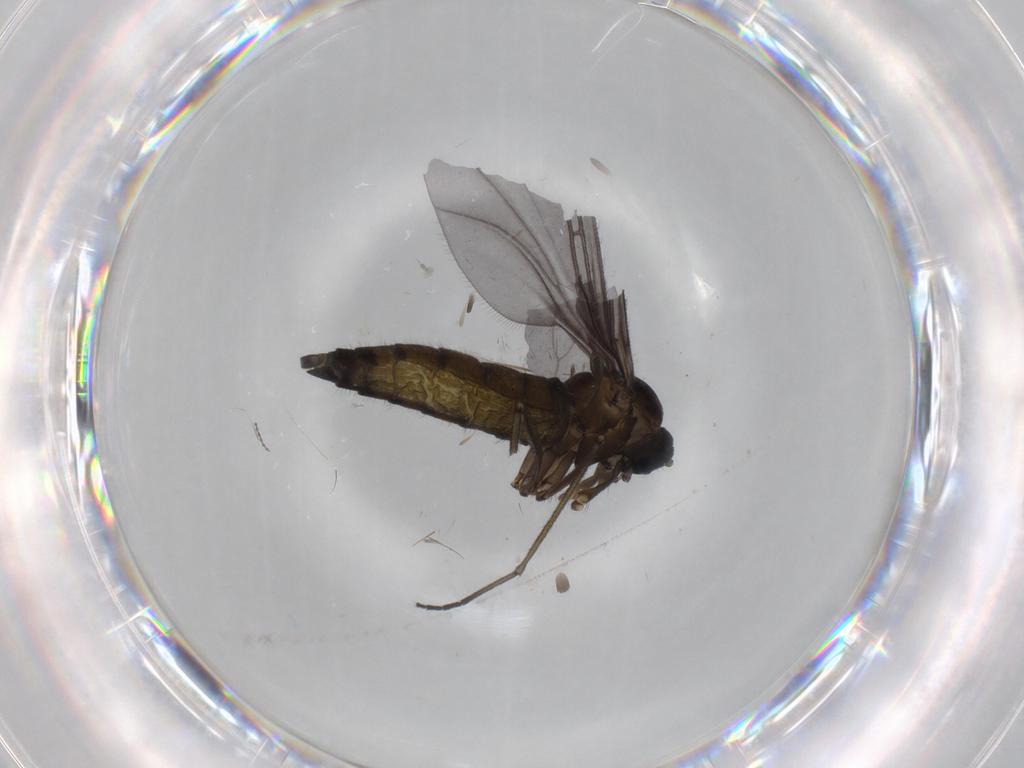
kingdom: Animalia
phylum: Arthropoda
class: Insecta
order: Diptera
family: Sciaridae
